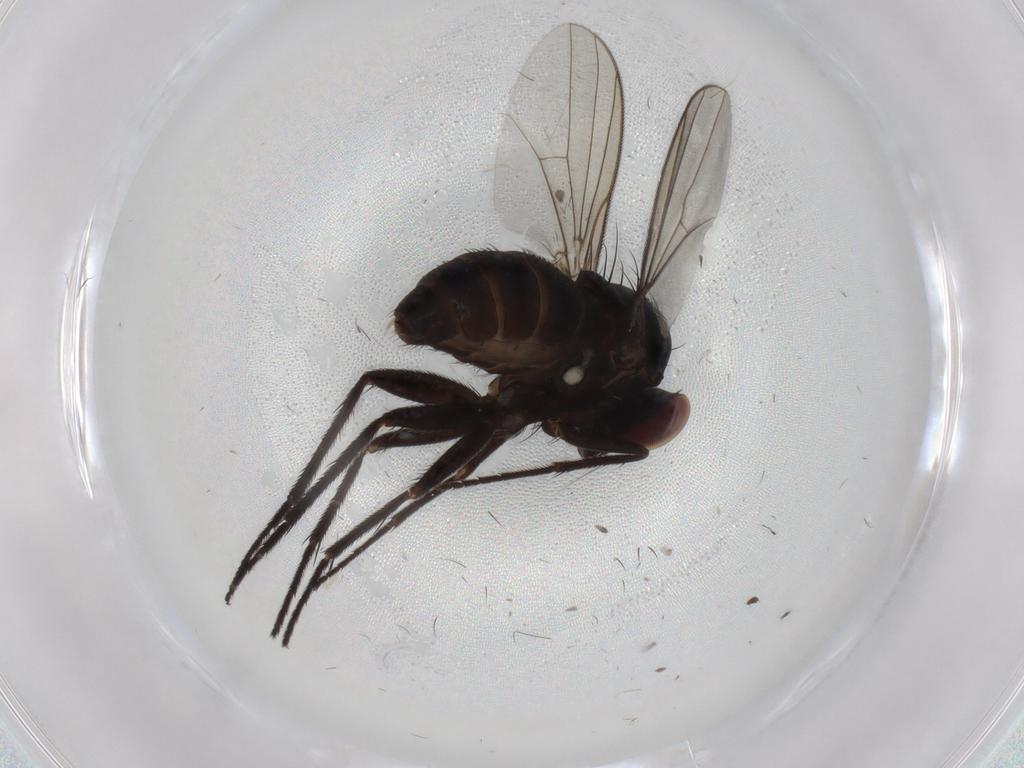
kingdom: Animalia
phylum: Arthropoda
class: Insecta
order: Diptera
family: Dolichopodidae
